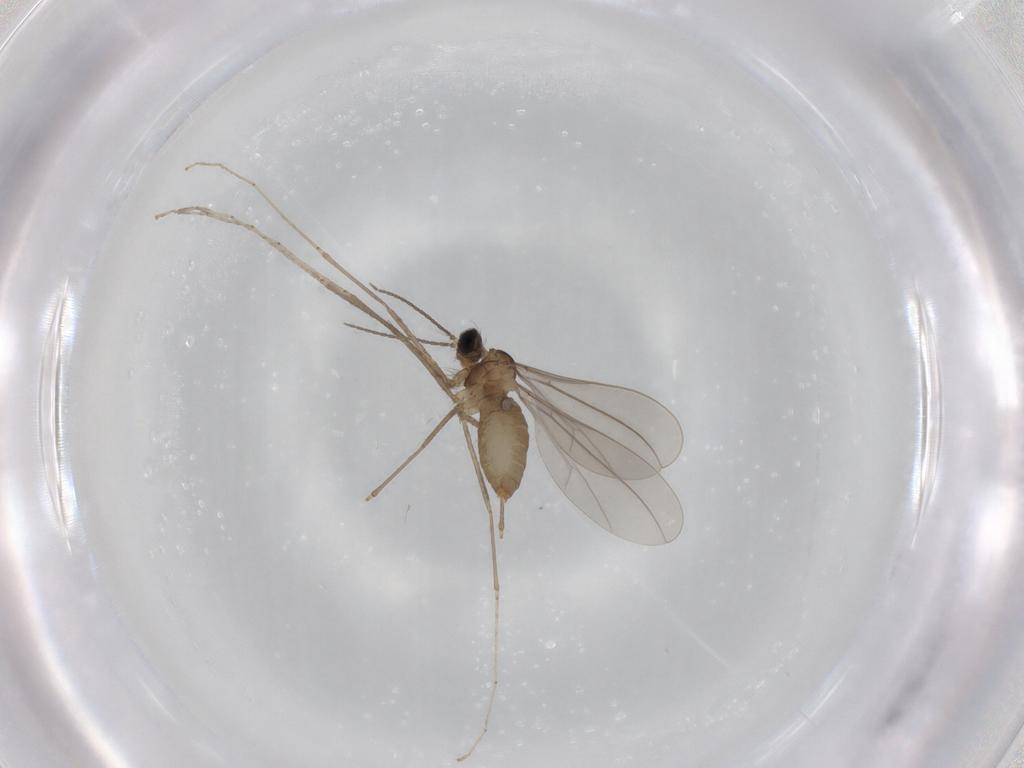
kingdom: Animalia
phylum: Arthropoda
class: Insecta
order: Diptera
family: Cecidomyiidae
